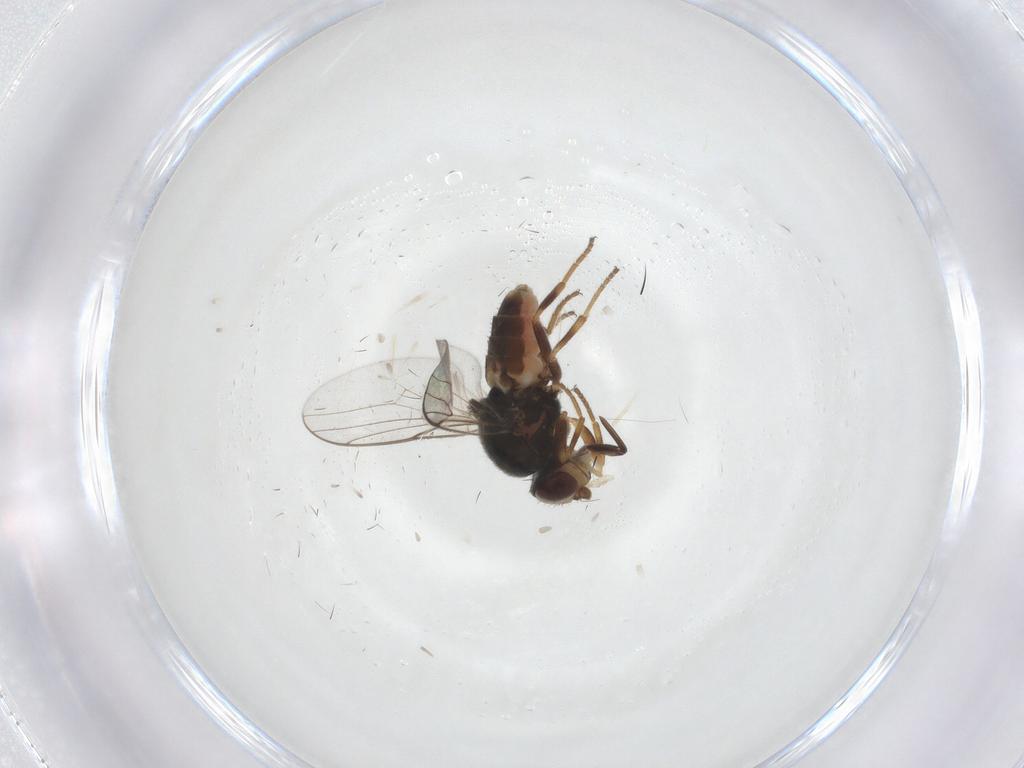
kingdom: Animalia
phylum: Arthropoda
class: Insecta
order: Diptera
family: Chloropidae
